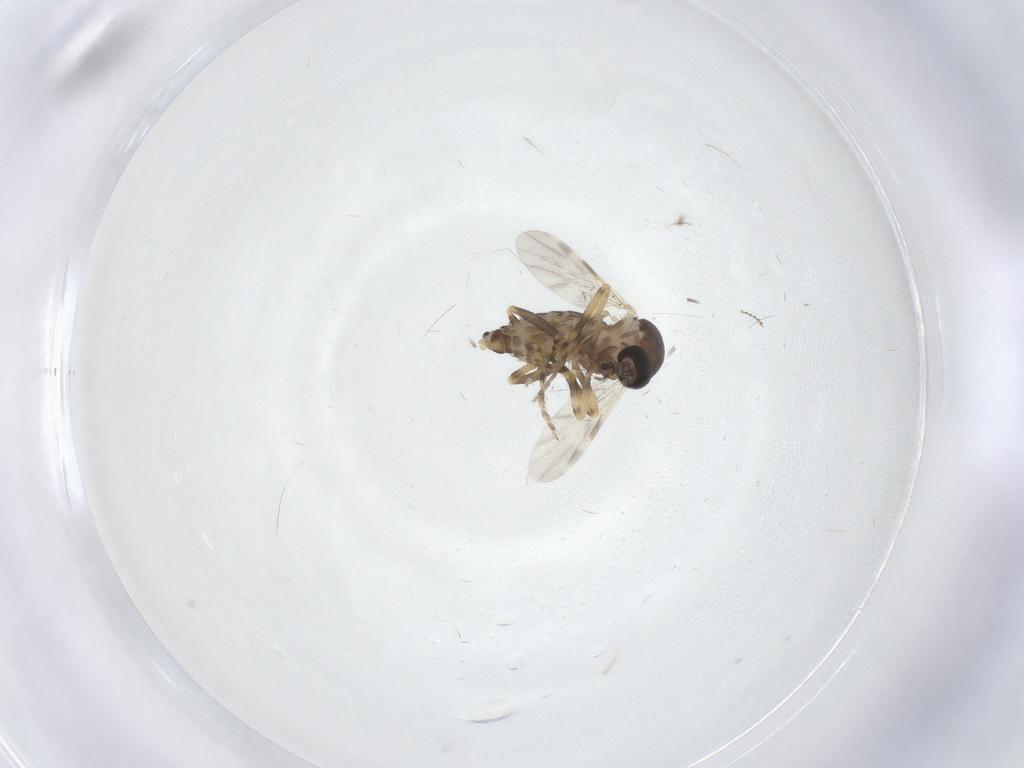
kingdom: Animalia
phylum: Arthropoda
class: Insecta
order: Diptera
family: Ceratopogonidae
